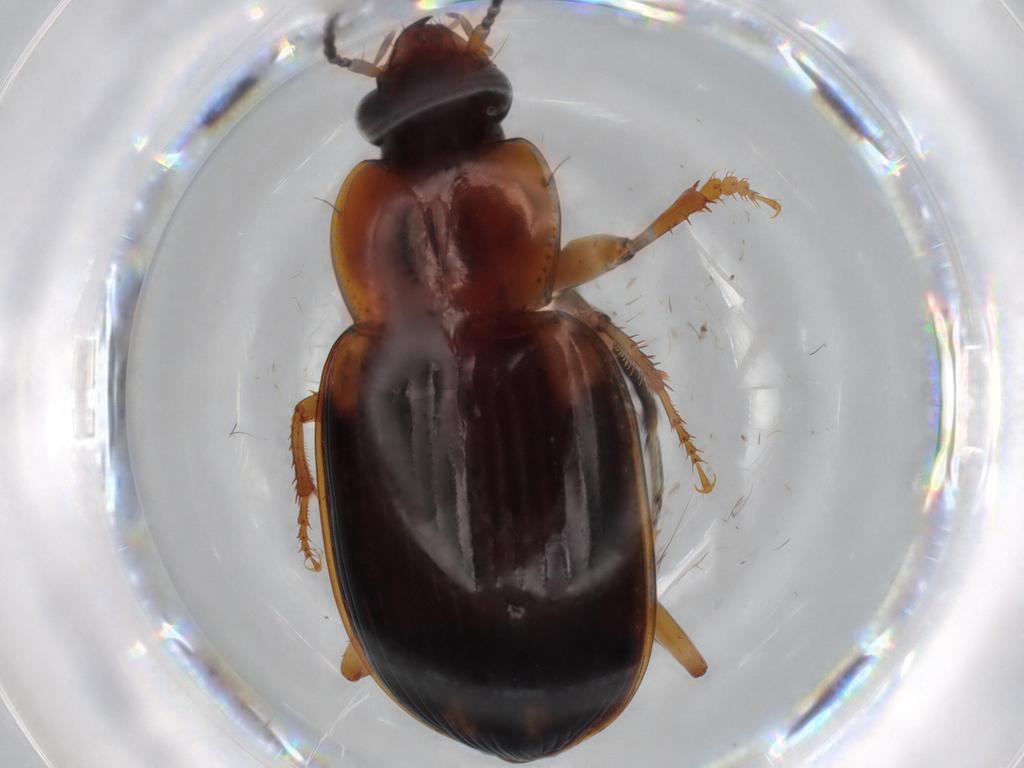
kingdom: Animalia
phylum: Arthropoda
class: Insecta
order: Coleoptera
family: Carabidae
